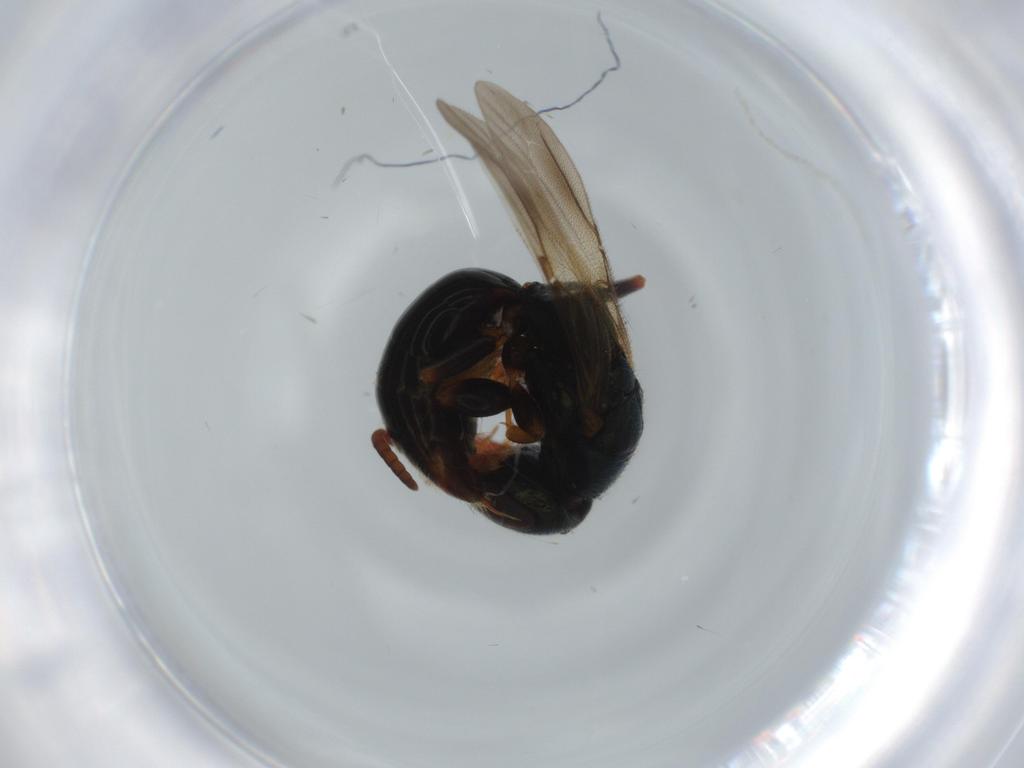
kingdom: Animalia
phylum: Arthropoda
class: Insecta
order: Hymenoptera
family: Bethylidae
